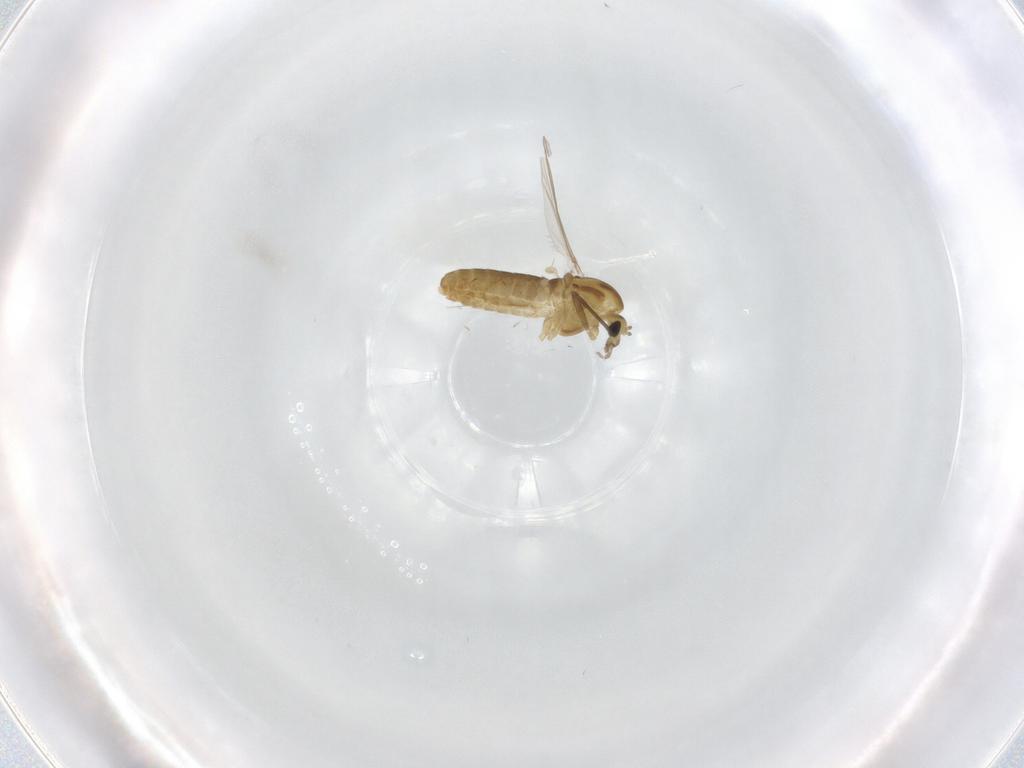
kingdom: Animalia
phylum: Arthropoda
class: Insecta
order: Diptera
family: Chironomidae
